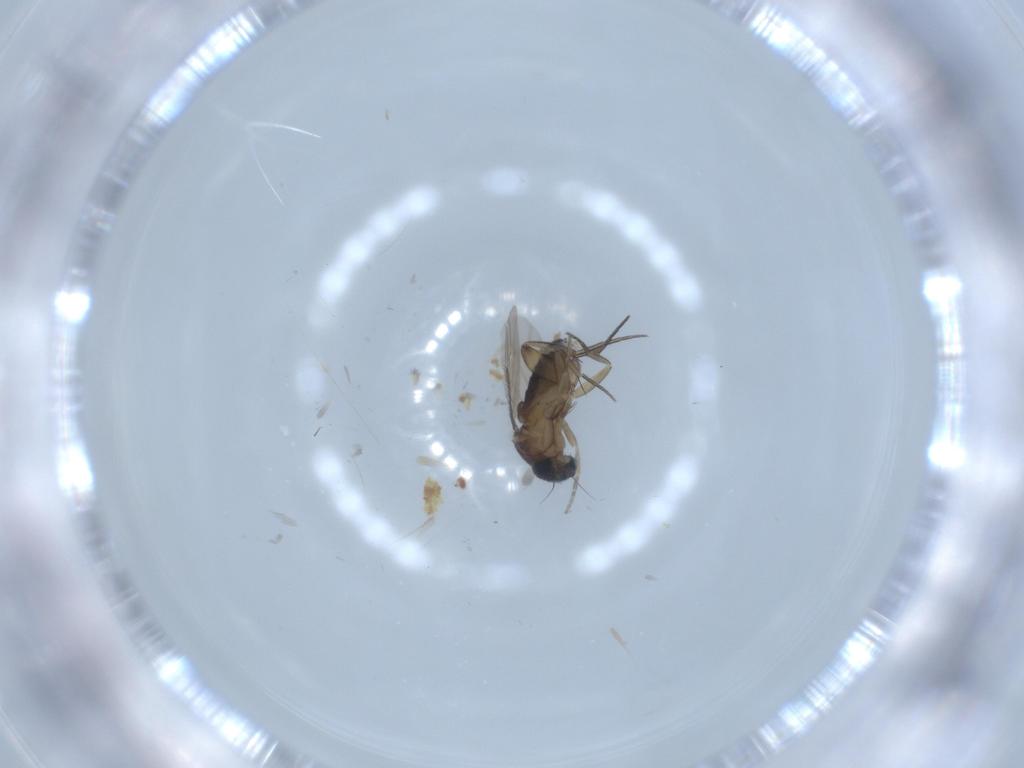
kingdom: Animalia
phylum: Arthropoda
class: Insecta
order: Diptera
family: Phoridae
